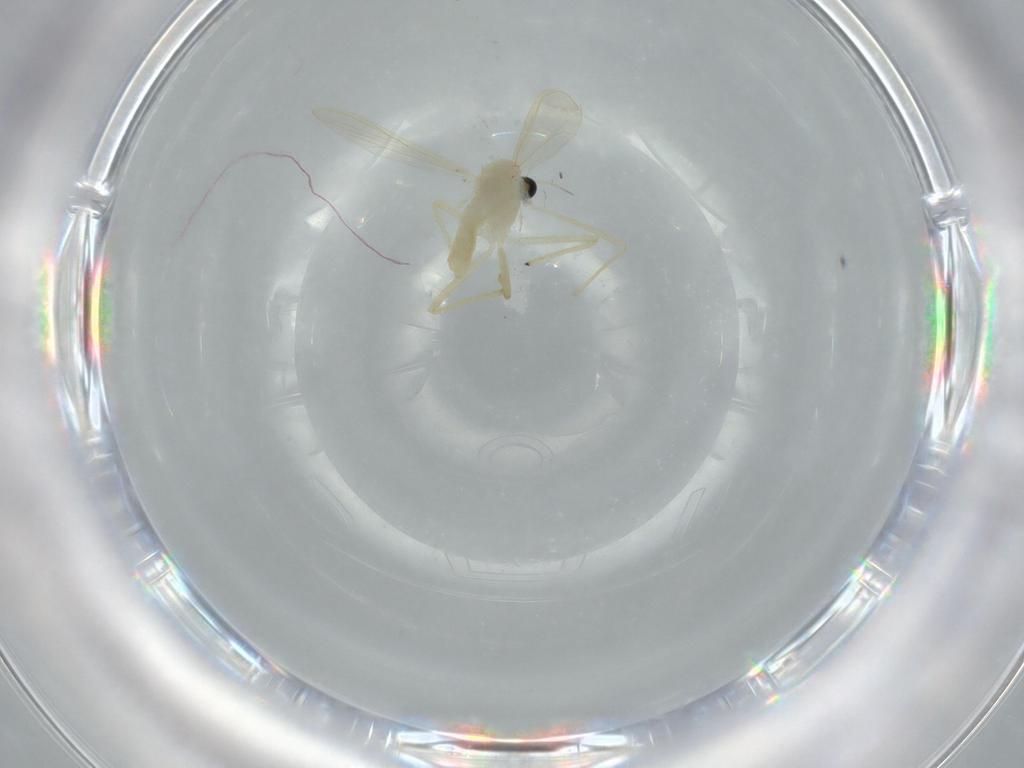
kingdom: Animalia
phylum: Arthropoda
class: Insecta
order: Diptera
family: Chironomidae
